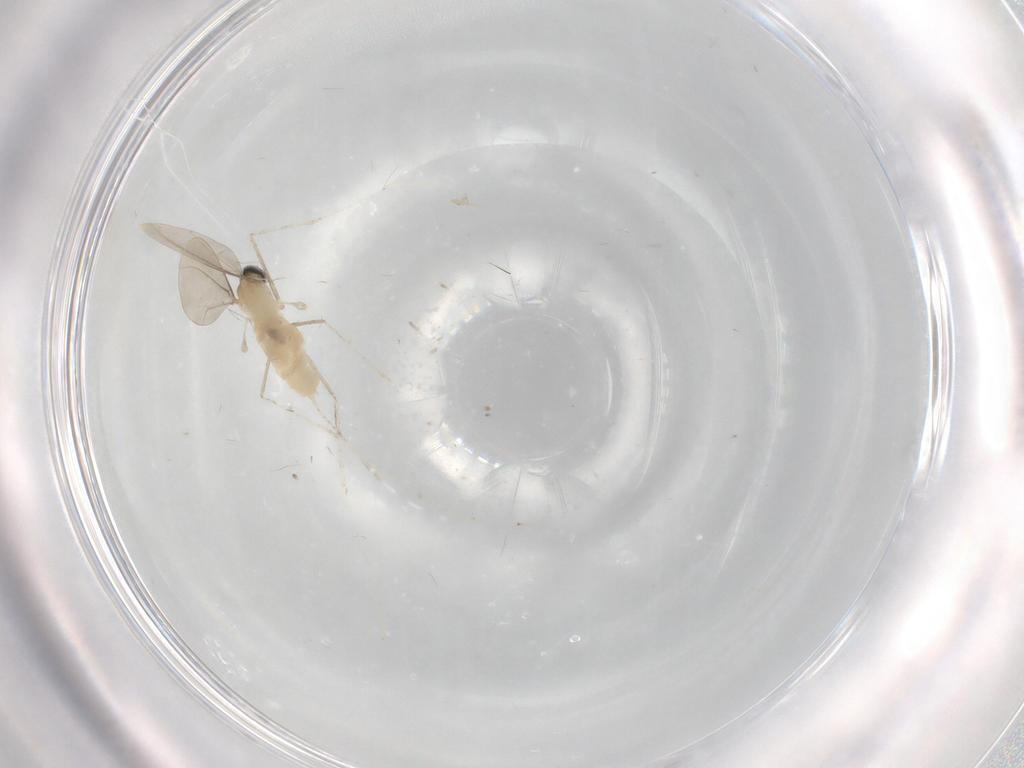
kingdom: Animalia
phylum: Arthropoda
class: Insecta
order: Diptera
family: Cecidomyiidae
